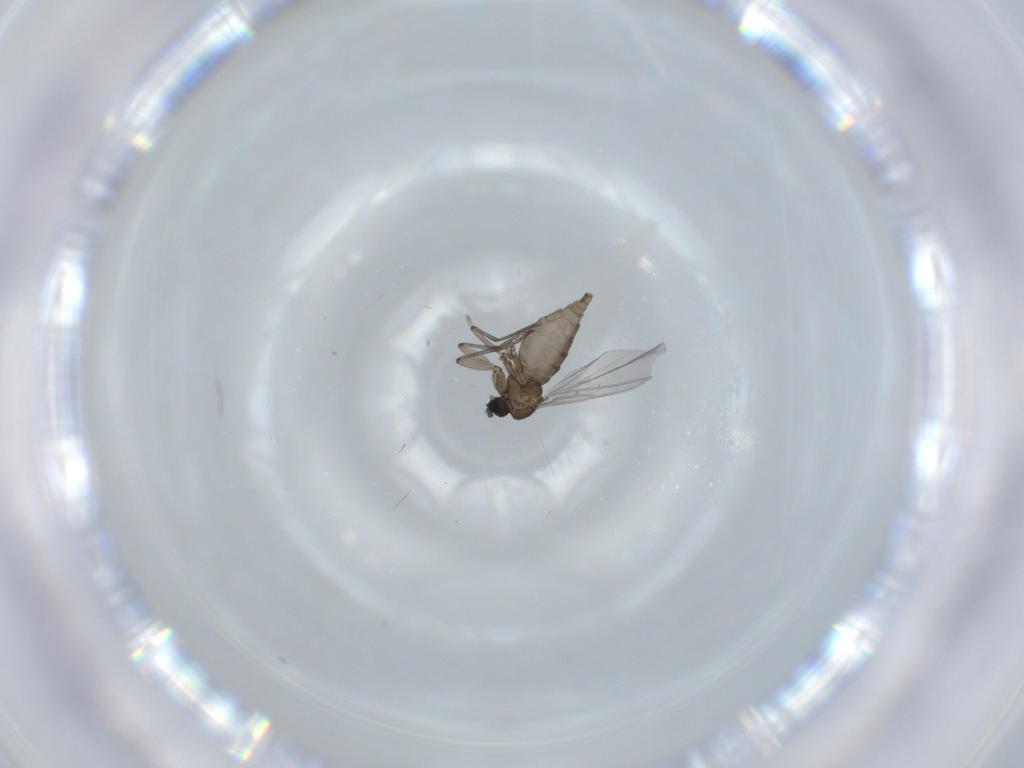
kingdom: Animalia
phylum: Arthropoda
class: Insecta
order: Diptera
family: Sciaridae
